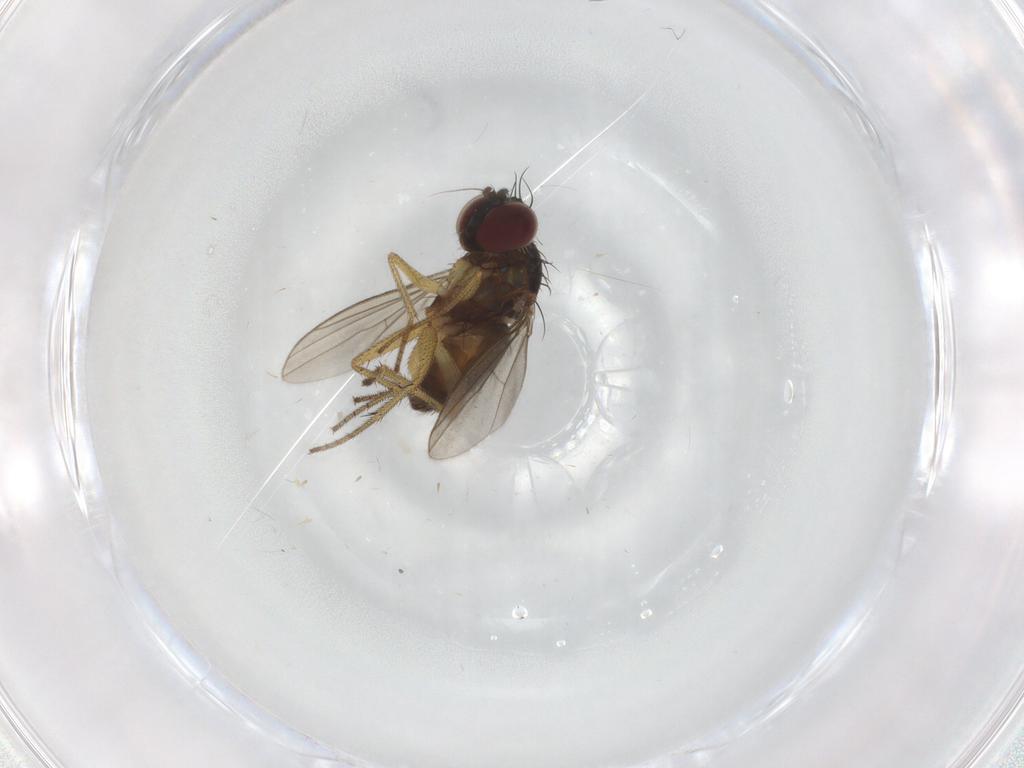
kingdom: Animalia
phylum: Arthropoda
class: Insecta
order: Diptera
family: Dolichopodidae
